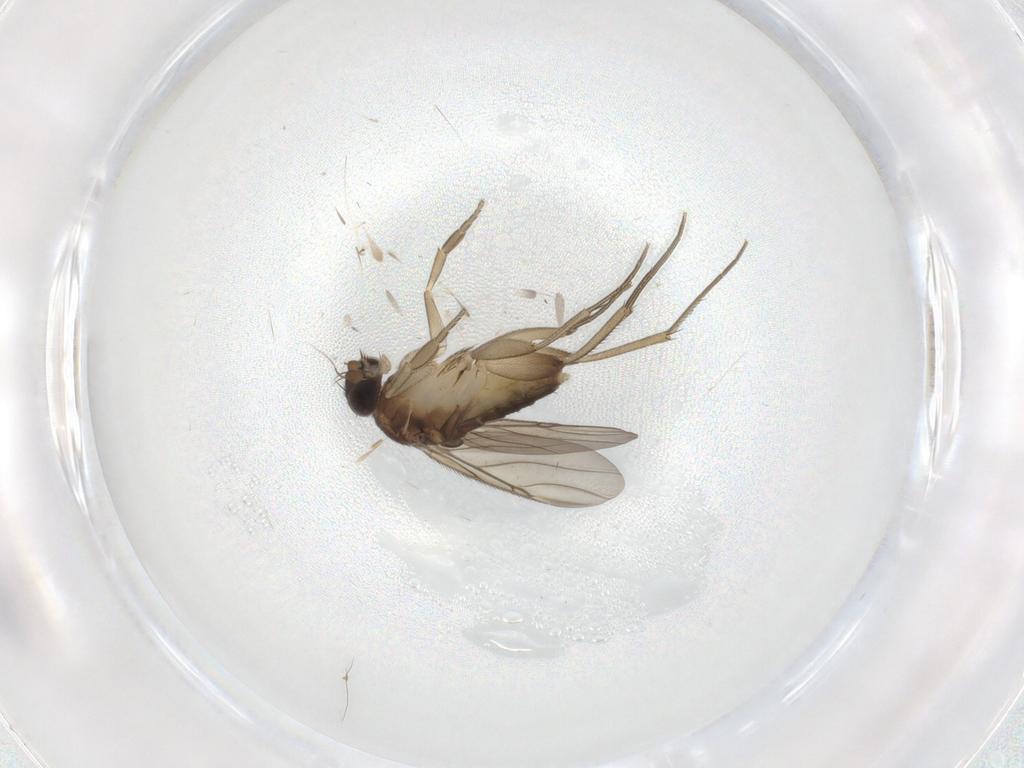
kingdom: Animalia
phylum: Arthropoda
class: Insecta
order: Diptera
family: Phoridae
